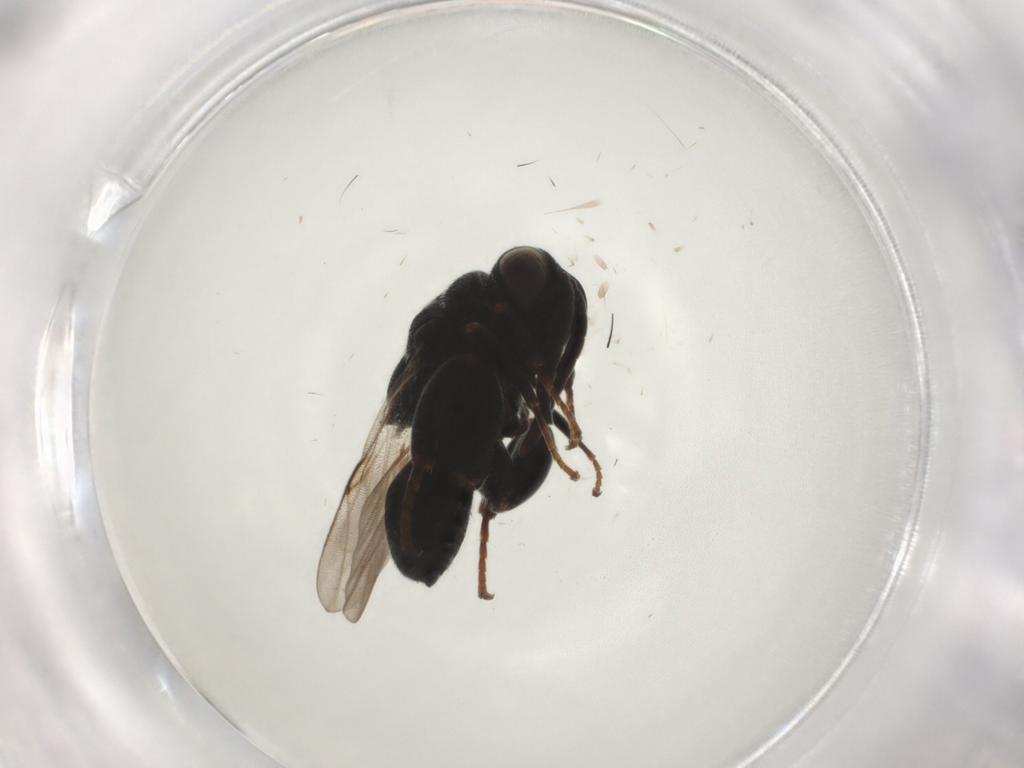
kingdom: Animalia
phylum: Arthropoda
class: Insecta
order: Hymenoptera
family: Chalcididae
